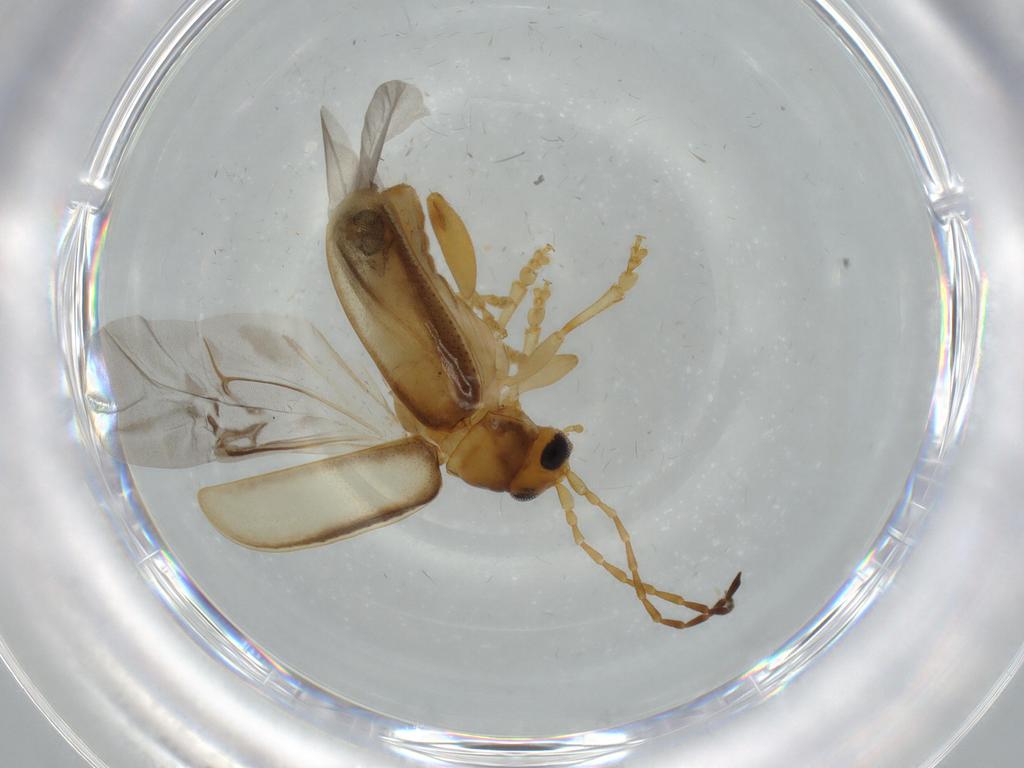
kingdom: Animalia
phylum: Arthropoda
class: Insecta
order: Coleoptera
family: Chrysomelidae
